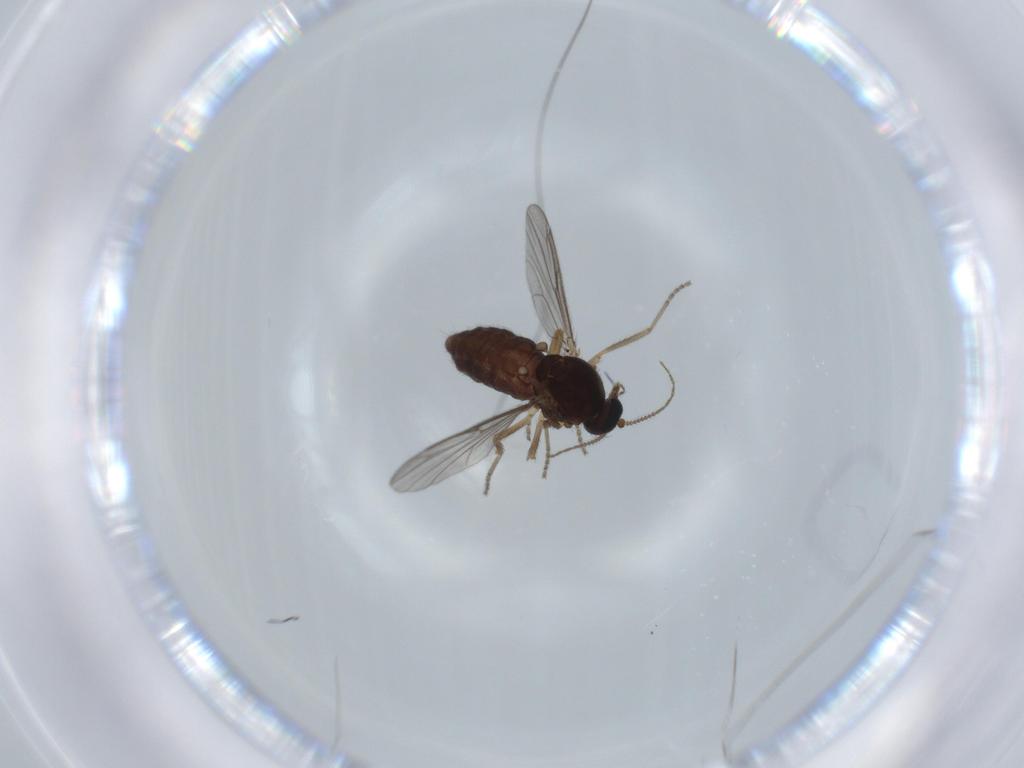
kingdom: Animalia
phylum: Arthropoda
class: Insecta
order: Diptera
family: Ceratopogonidae
